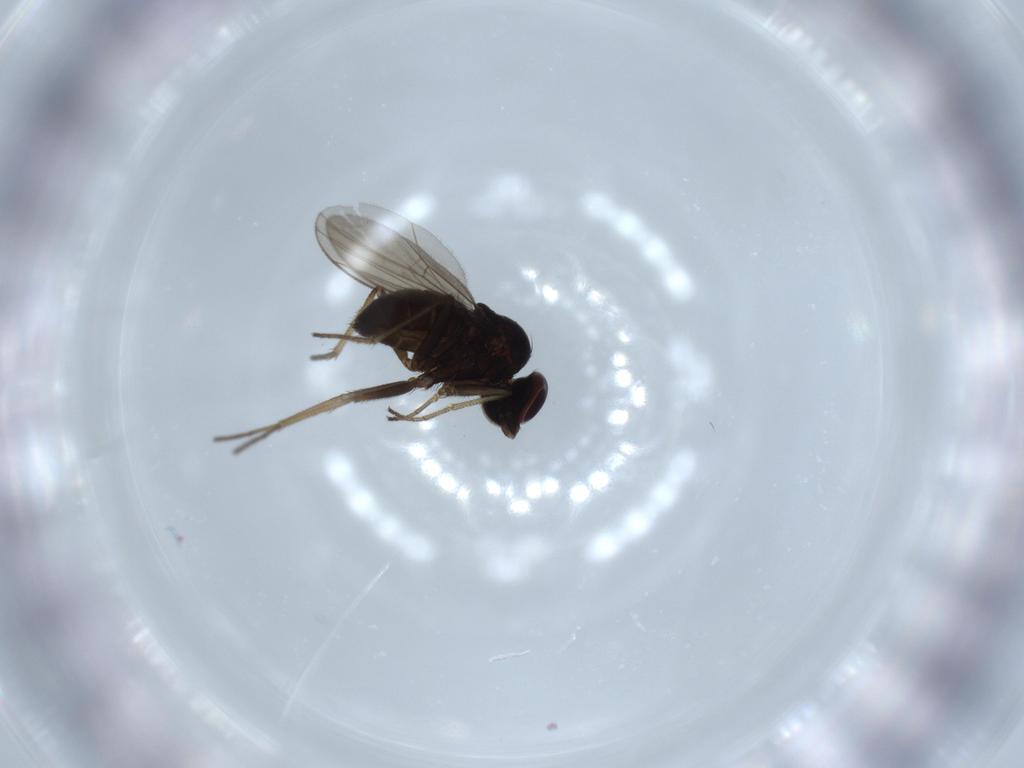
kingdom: Animalia
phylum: Arthropoda
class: Insecta
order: Diptera
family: Dolichopodidae
